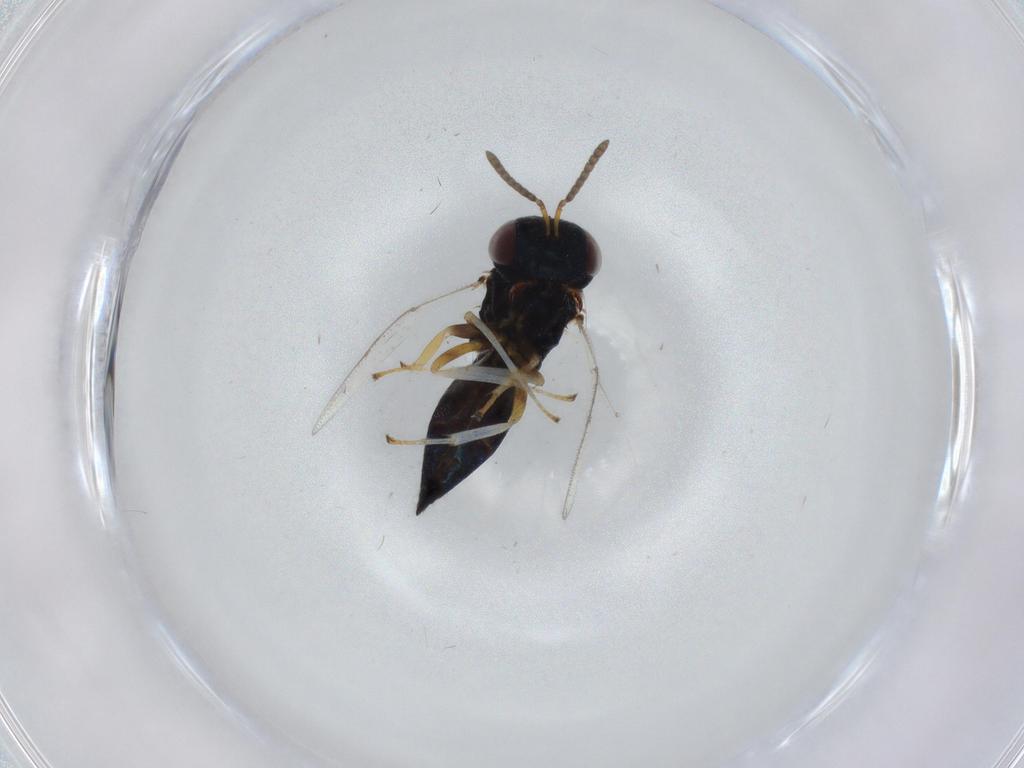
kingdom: Animalia
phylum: Arthropoda
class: Insecta
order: Hymenoptera
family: Pteromalidae
